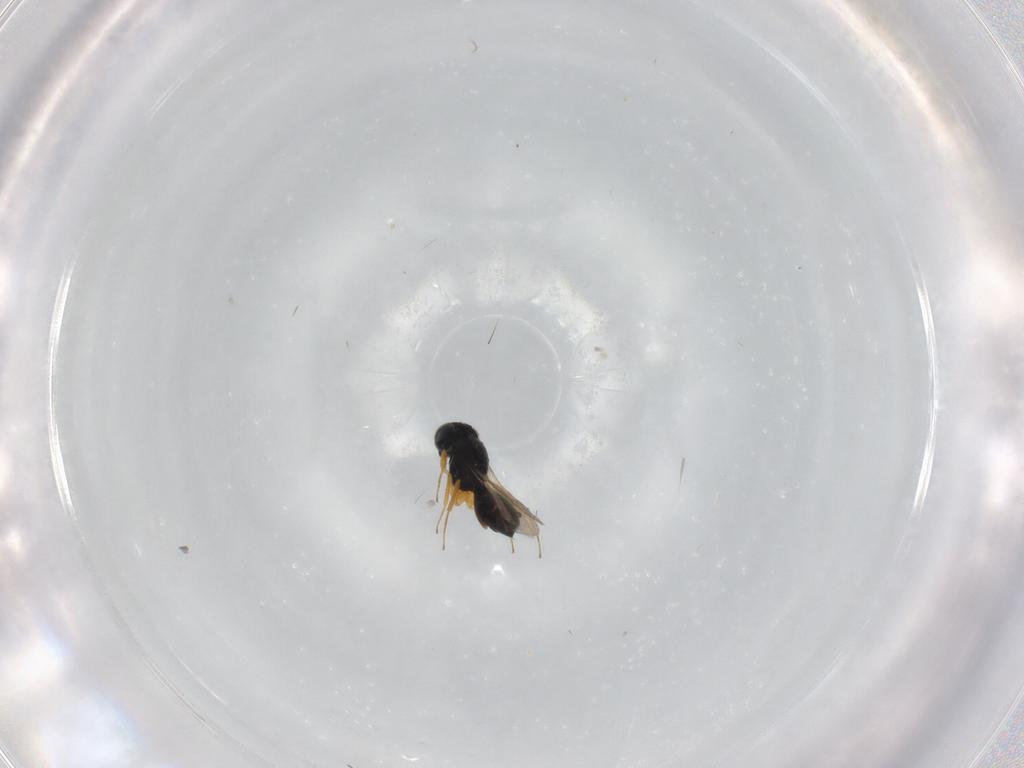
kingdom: Animalia
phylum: Arthropoda
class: Insecta
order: Hymenoptera
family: Scelionidae
